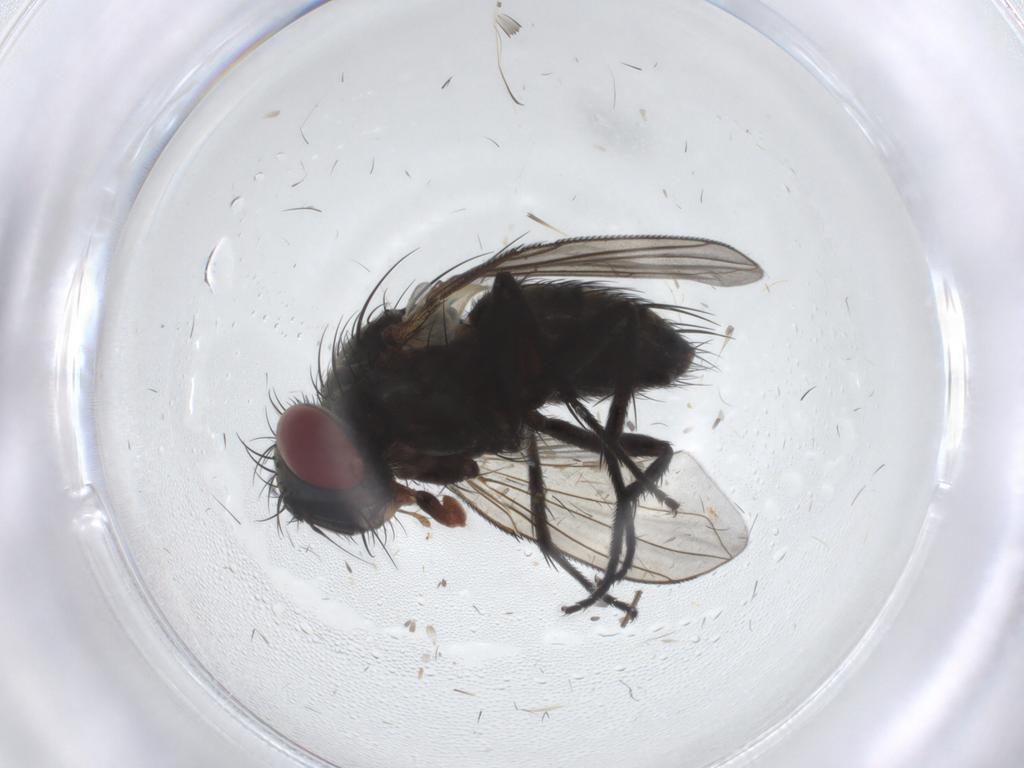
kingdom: Animalia
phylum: Arthropoda
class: Insecta
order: Diptera
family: Tachinidae
